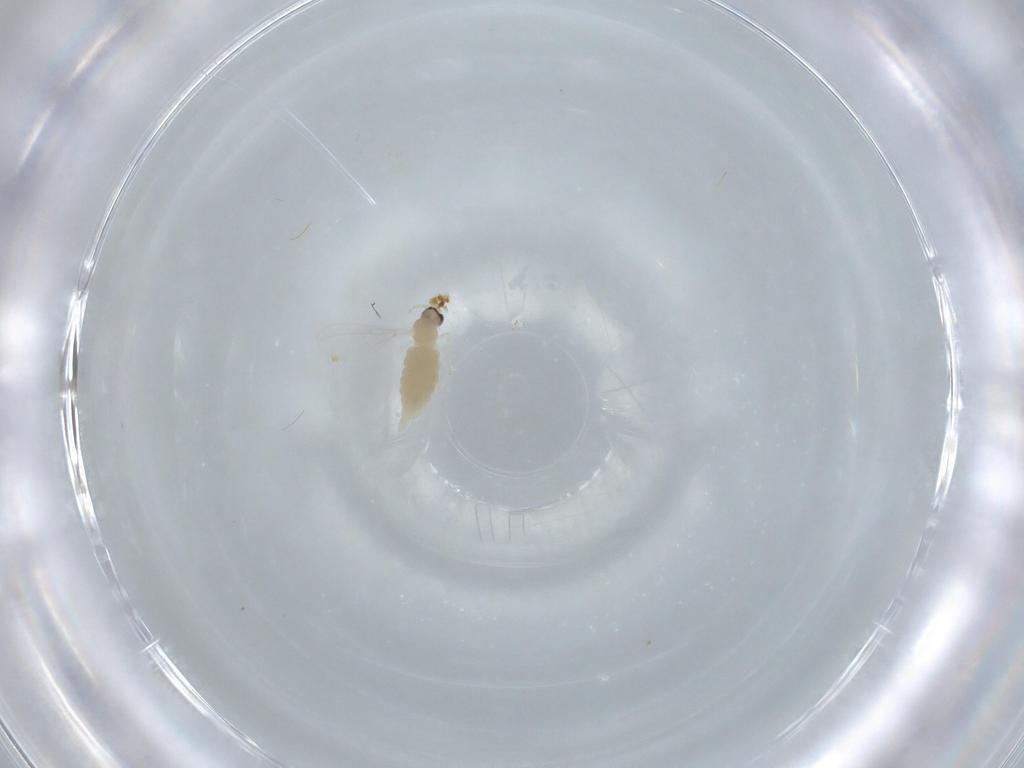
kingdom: Animalia
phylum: Arthropoda
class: Insecta
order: Diptera
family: Cecidomyiidae
